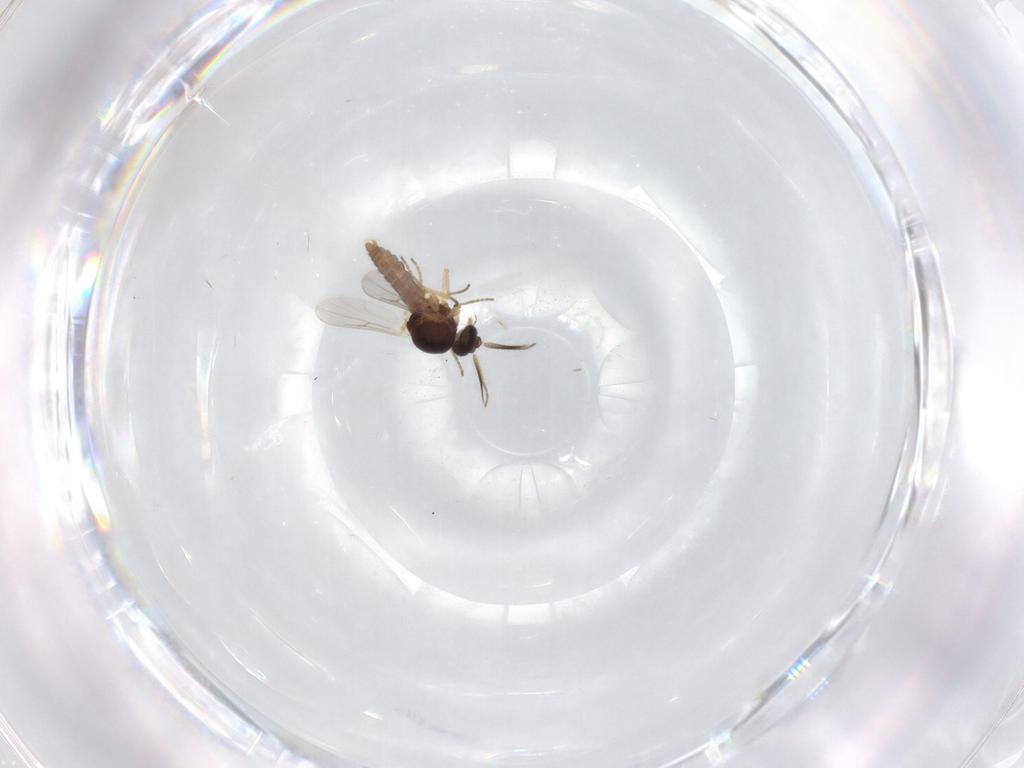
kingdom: Animalia
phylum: Arthropoda
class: Insecta
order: Diptera
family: Ceratopogonidae
